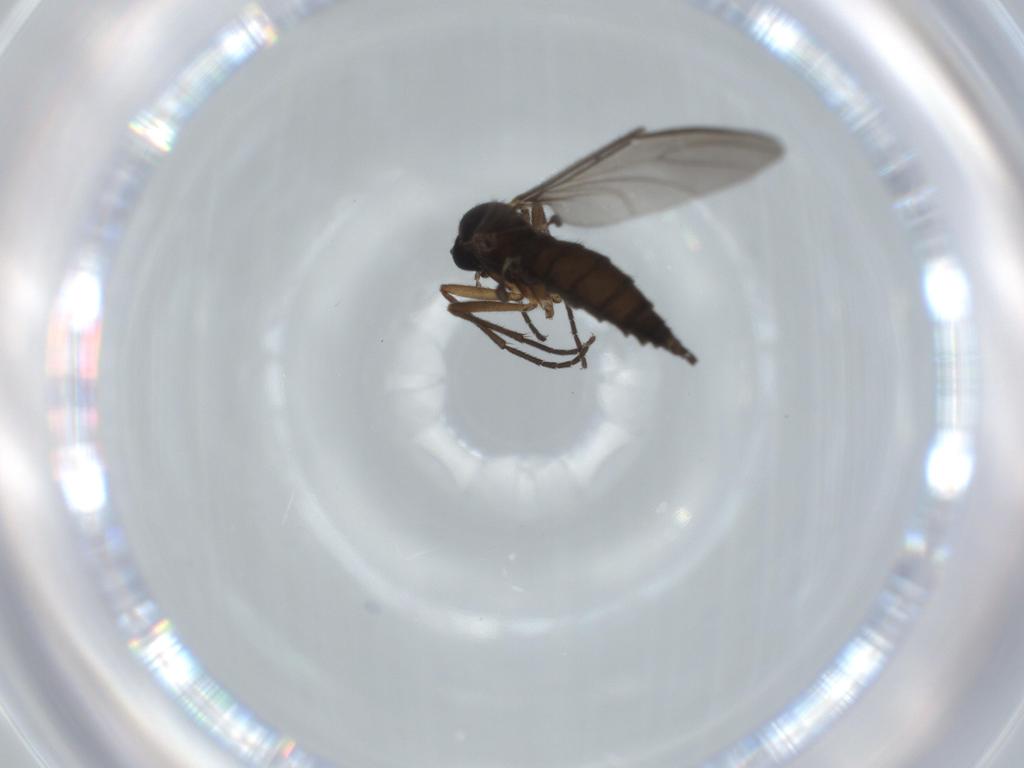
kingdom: Animalia
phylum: Arthropoda
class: Insecta
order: Diptera
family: Sciaridae
